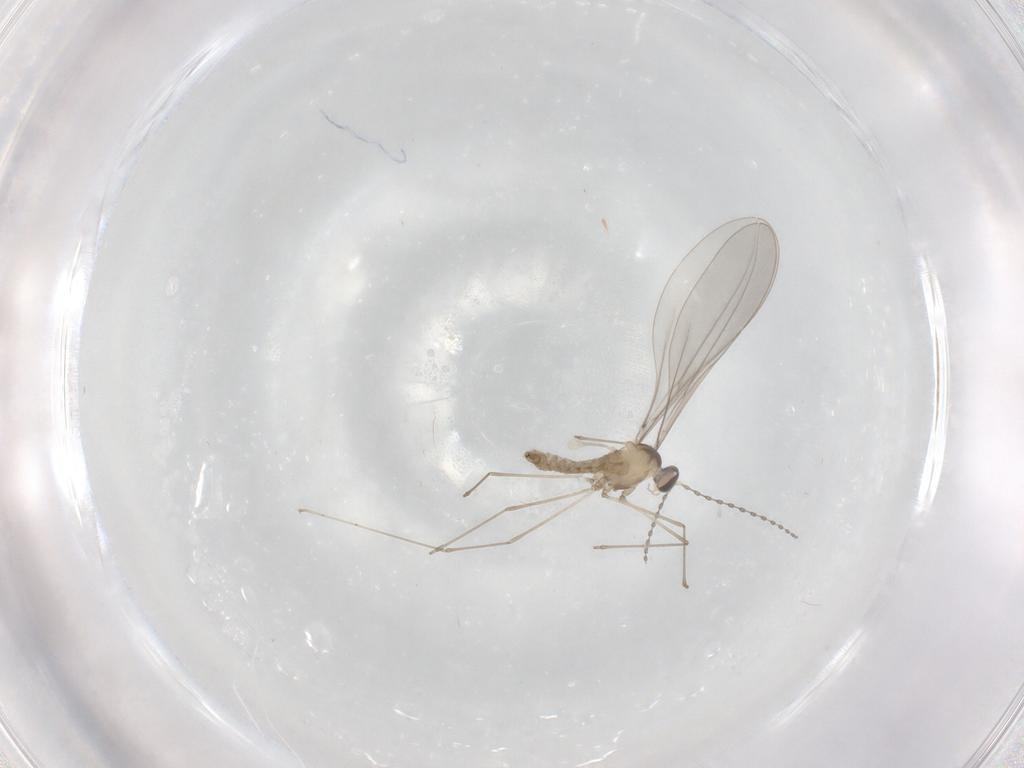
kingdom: Animalia
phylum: Arthropoda
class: Insecta
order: Diptera
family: Cecidomyiidae
